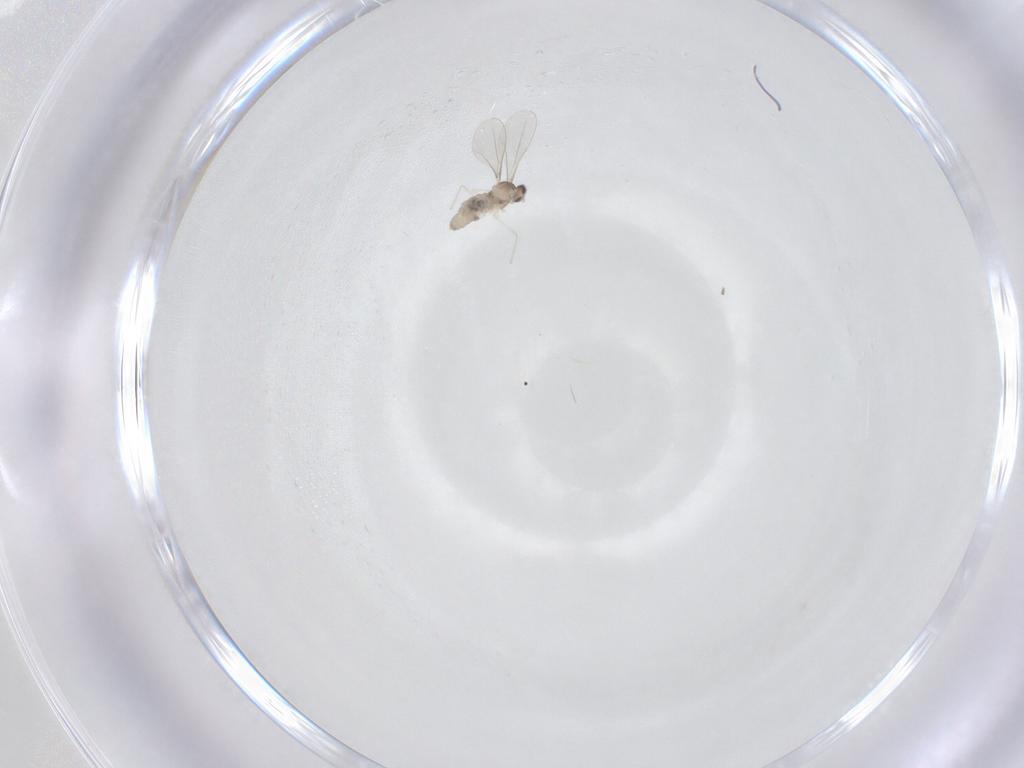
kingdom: Animalia
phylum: Arthropoda
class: Insecta
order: Diptera
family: Cecidomyiidae
